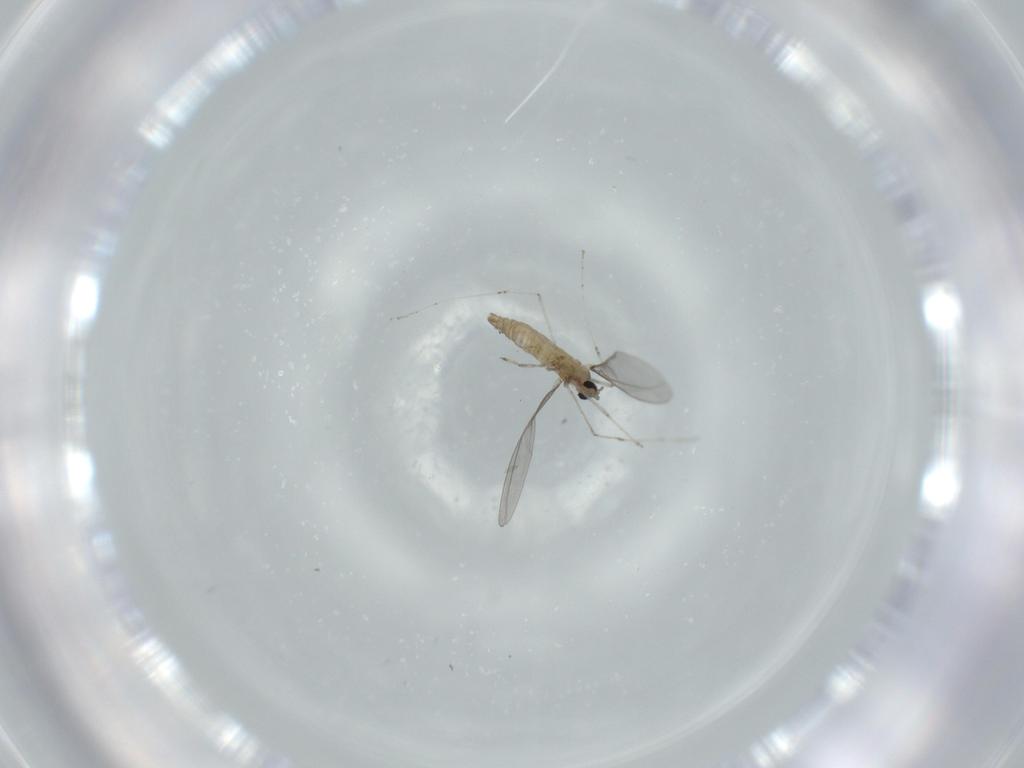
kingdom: Animalia
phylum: Arthropoda
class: Insecta
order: Diptera
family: Cecidomyiidae
